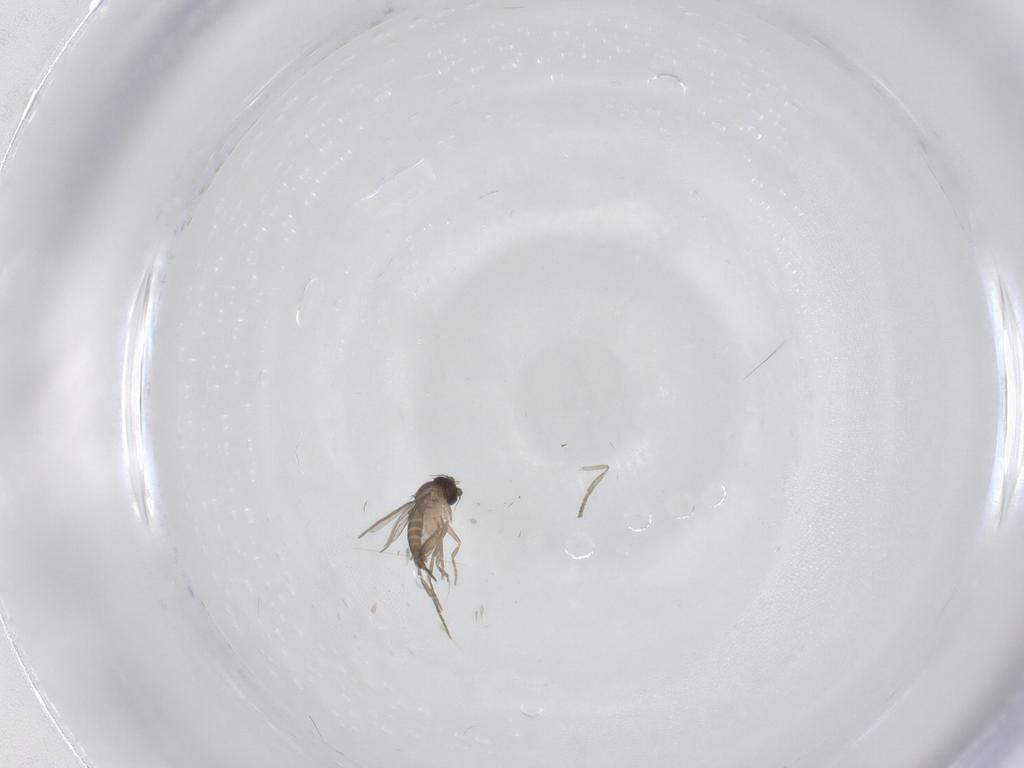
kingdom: Animalia
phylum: Arthropoda
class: Insecta
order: Diptera
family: Phoridae
